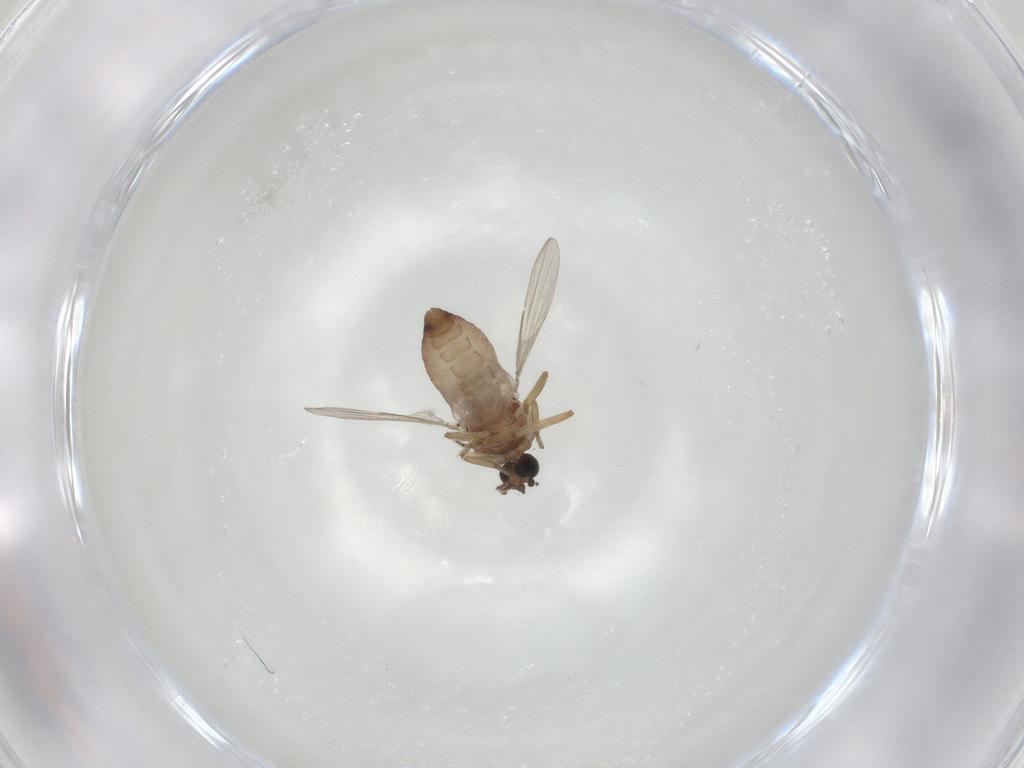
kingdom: Animalia
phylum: Arthropoda
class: Insecta
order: Diptera
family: Ceratopogonidae
